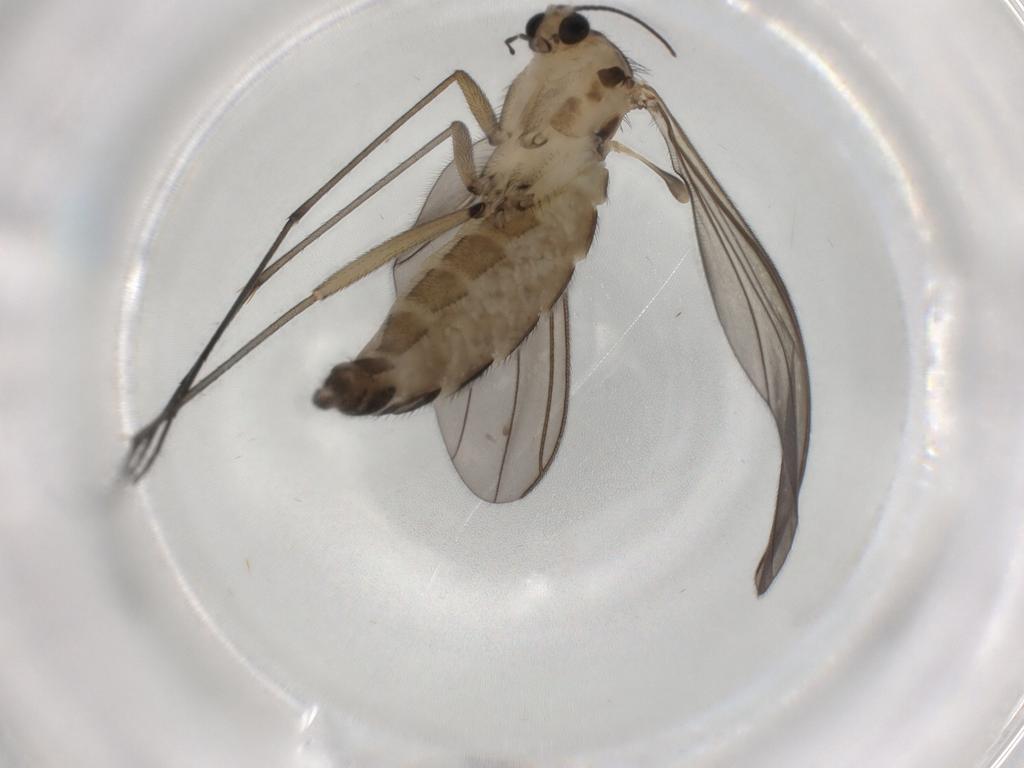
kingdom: Animalia
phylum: Arthropoda
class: Insecta
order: Diptera
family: Sciaridae
